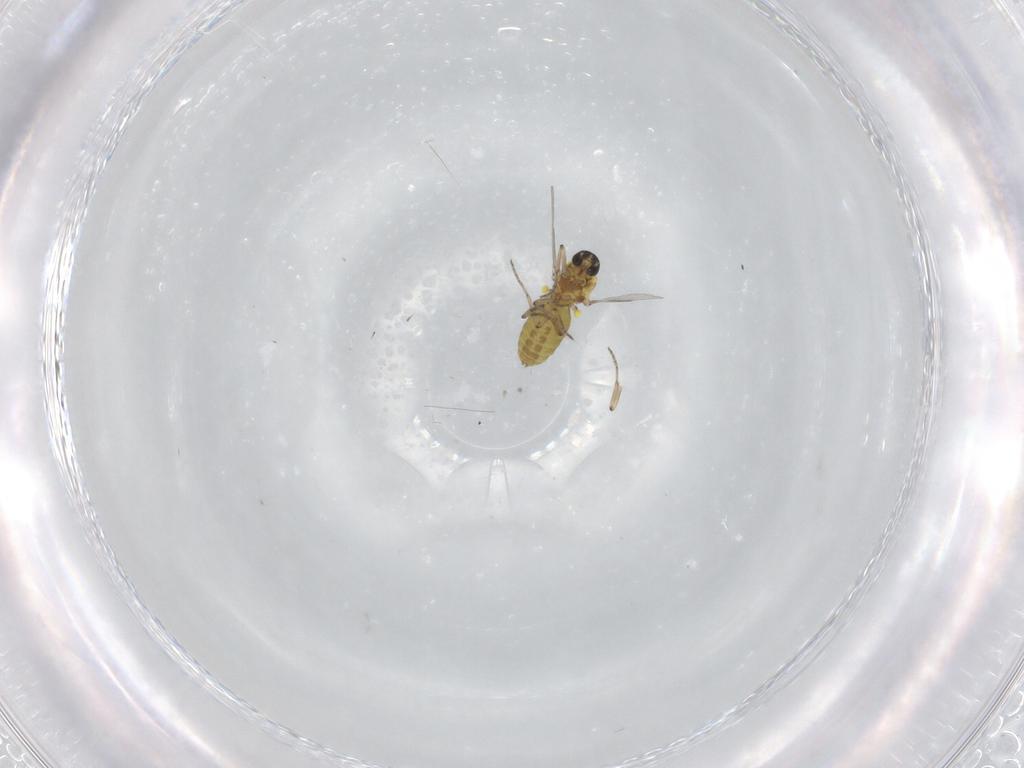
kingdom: Animalia
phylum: Arthropoda
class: Insecta
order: Diptera
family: Ceratopogonidae
